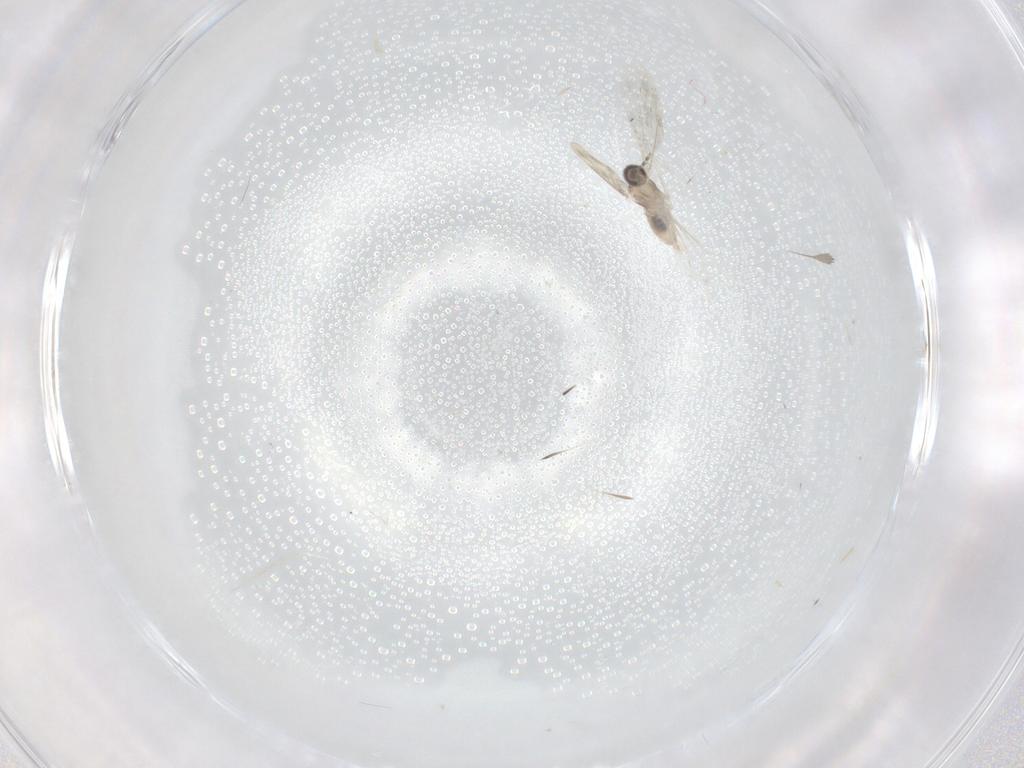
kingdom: Animalia
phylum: Arthropoda
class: Insecta
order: Diptera
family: Cecidomyiidae
